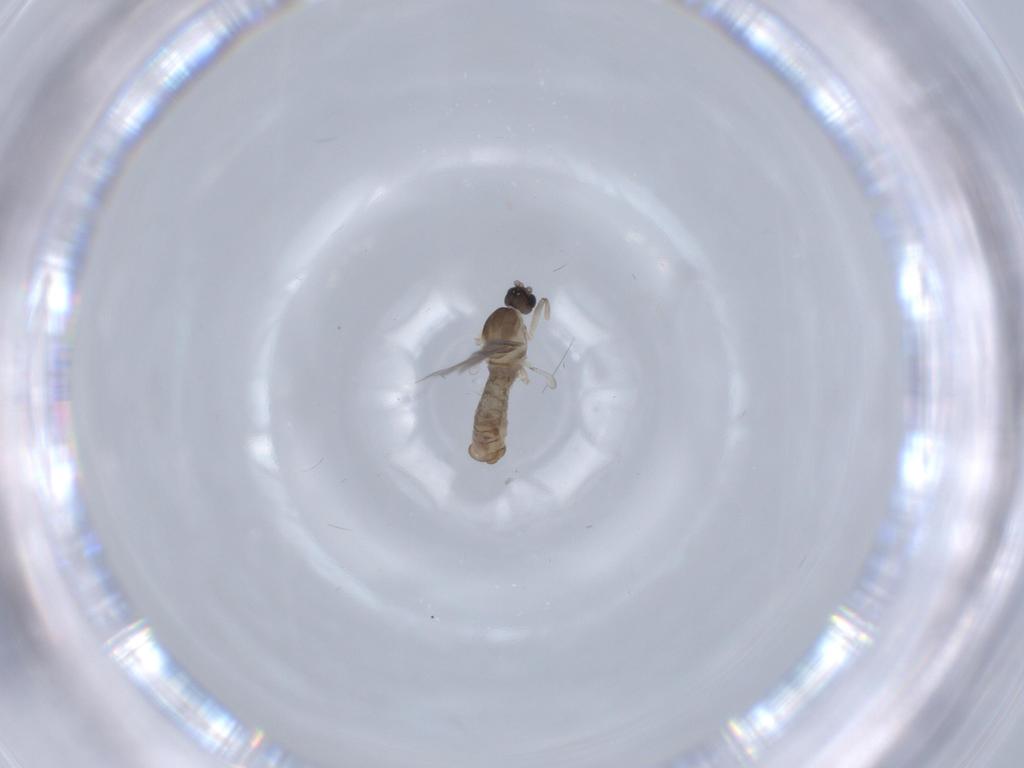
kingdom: Animalia
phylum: Arthropoda
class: Insecta
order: Diptera
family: Cecidomyiidae
